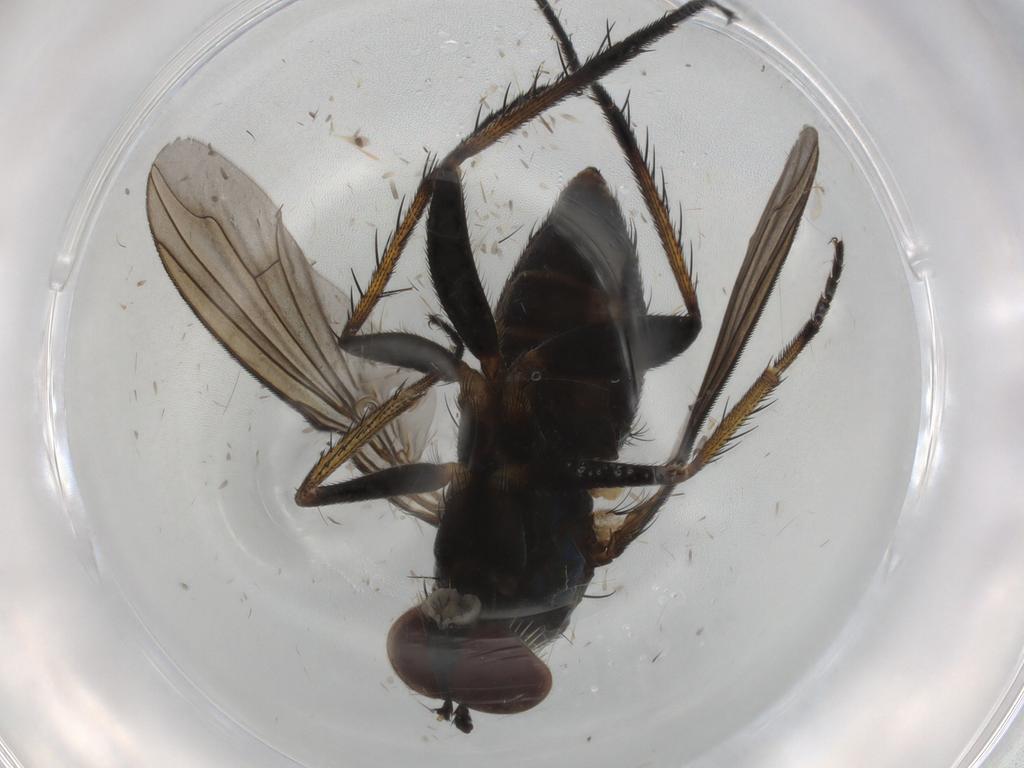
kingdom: Animalia
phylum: Arthropoda
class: Insecta
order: Diptera
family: Dolichopodidae
